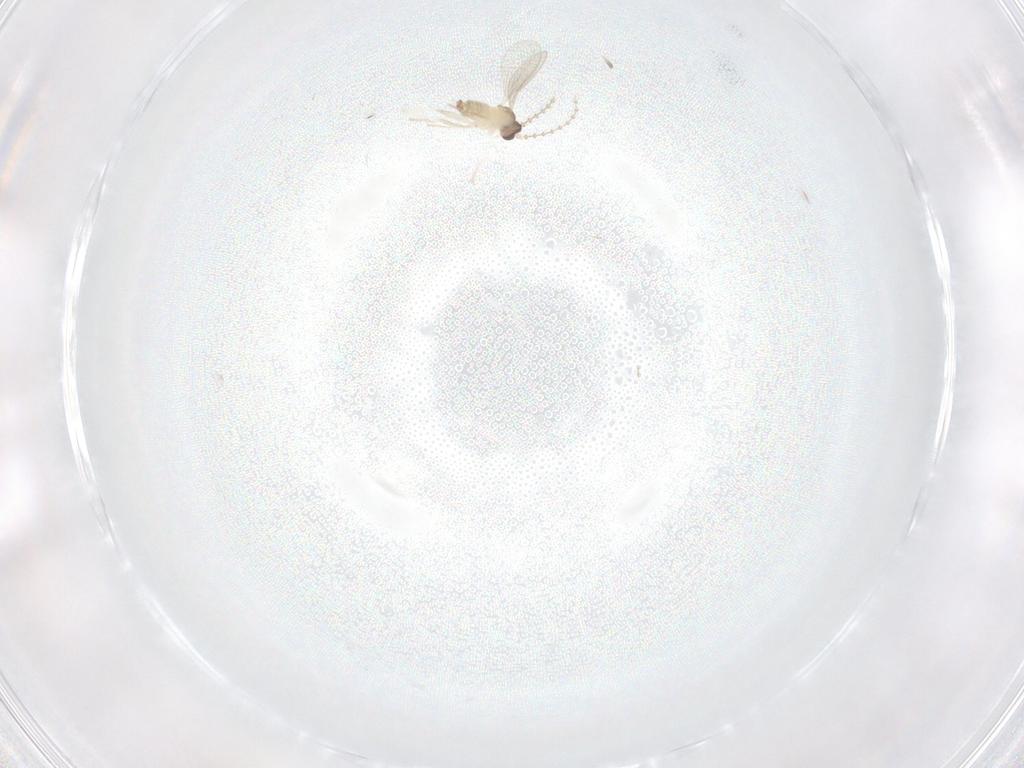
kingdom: Animalia
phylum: Arthropoda
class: Insecta
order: Diptera
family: Cecidomyiidae
